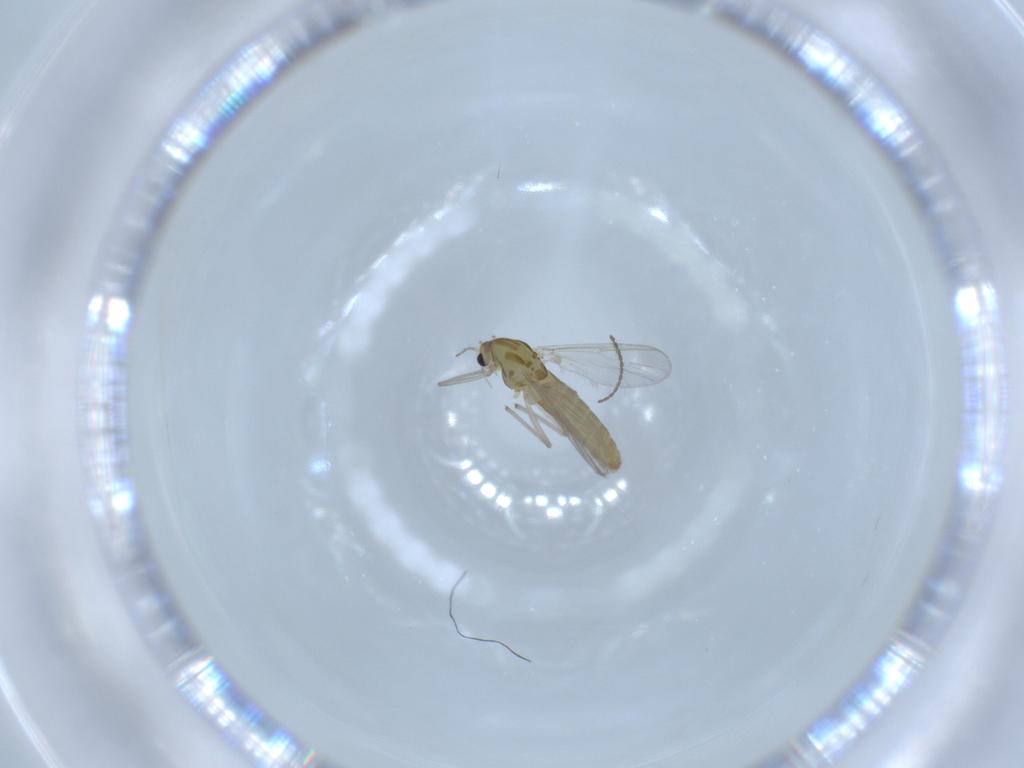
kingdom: Animalia
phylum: Arthropoda
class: Insecta
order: Diptera
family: Chironomidae
